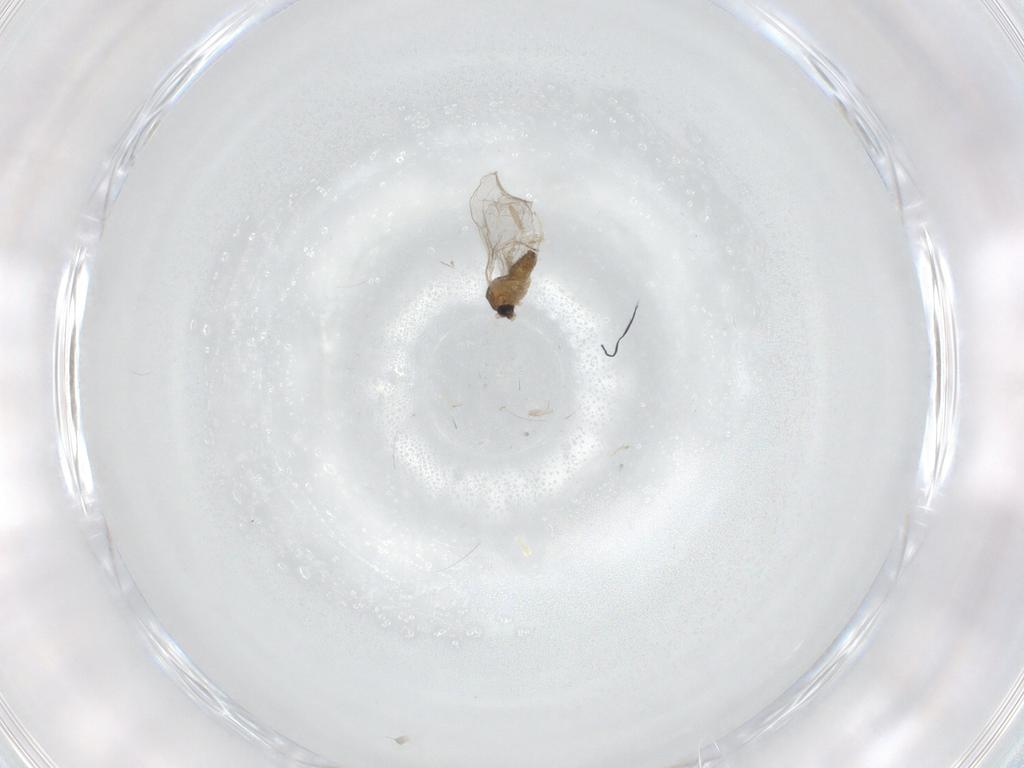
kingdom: Animalia
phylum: Arthropoda
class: Insecta
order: Diptera
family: Cecidomyiidae
